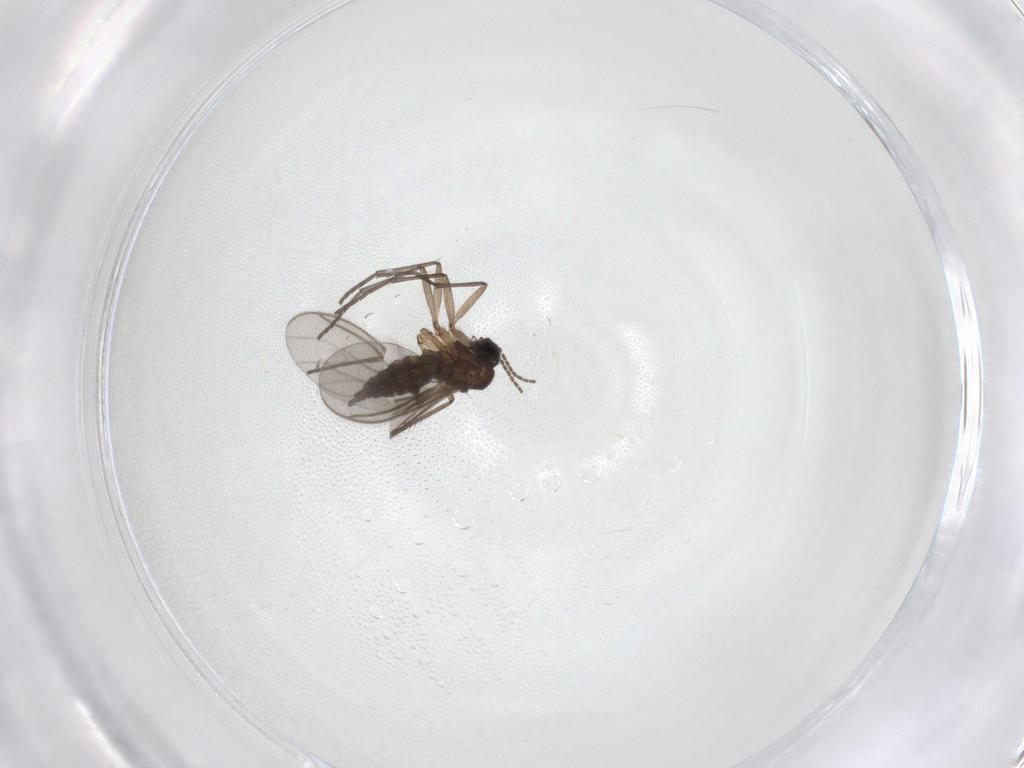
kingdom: Animalia
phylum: Arthropoda
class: Insecta
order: Diptera
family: Sciaridae
